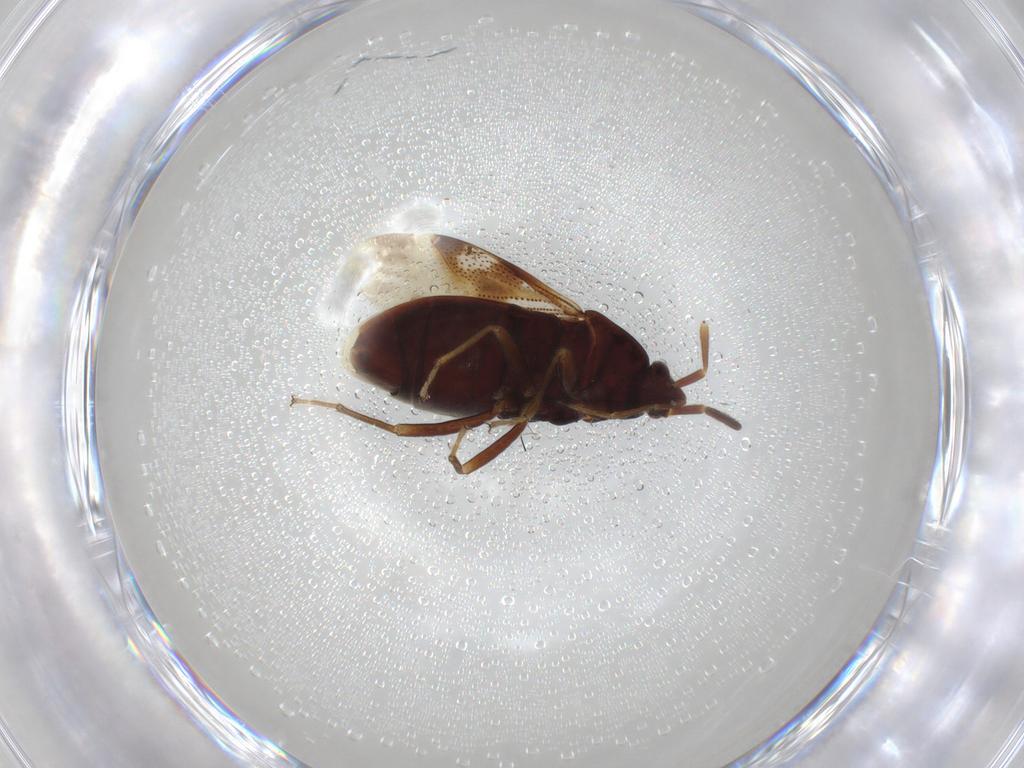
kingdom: Animalia
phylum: Arthropoda
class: Insecta
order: Hemiptera
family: Rhyparochromidae
